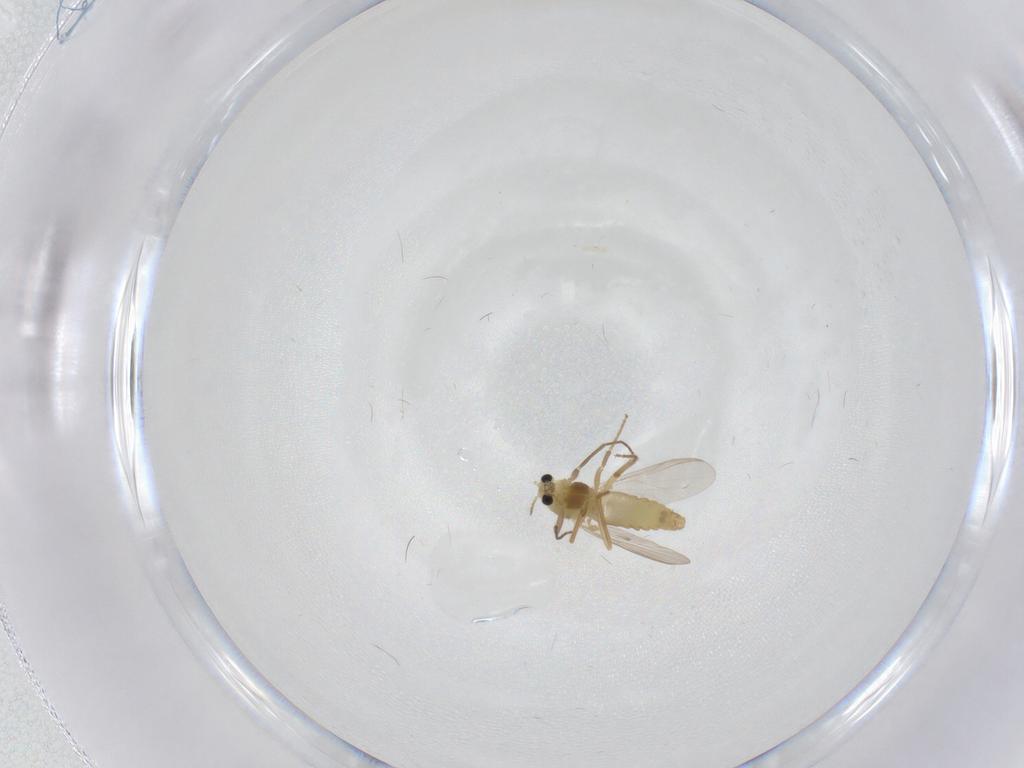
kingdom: Animalia
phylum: Arthropoda
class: Insecta
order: Diptera
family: Chironomidae
